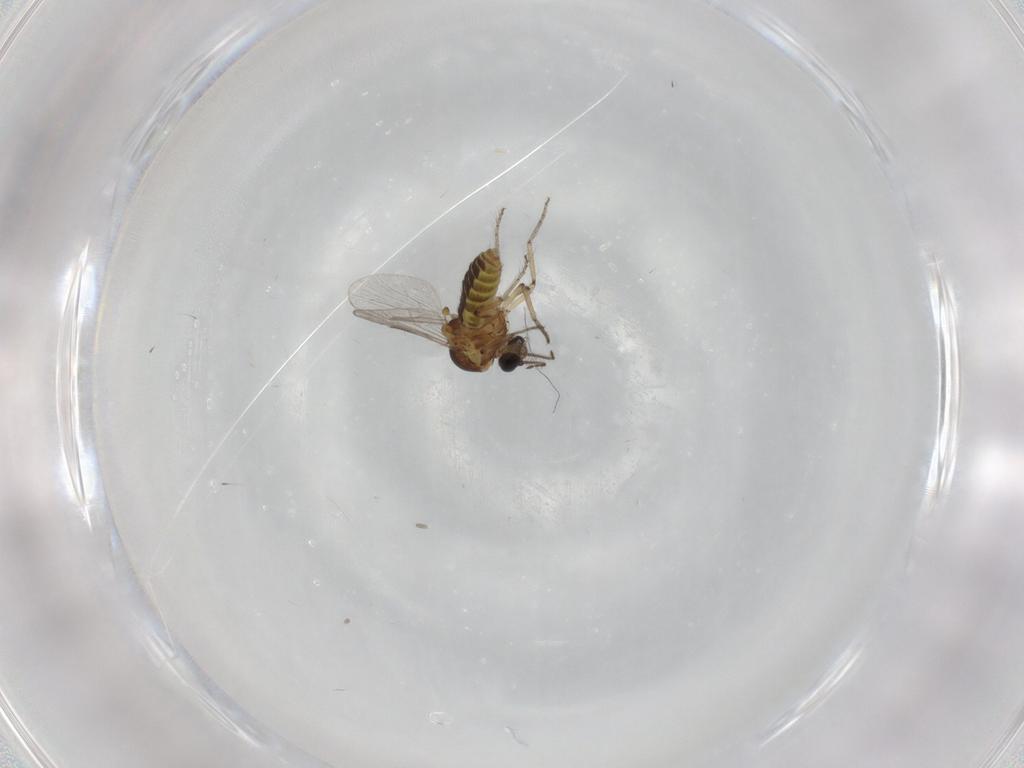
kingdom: Animalia
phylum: Arthropoda
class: Insecta
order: Diptera
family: Ceratopogonidae
